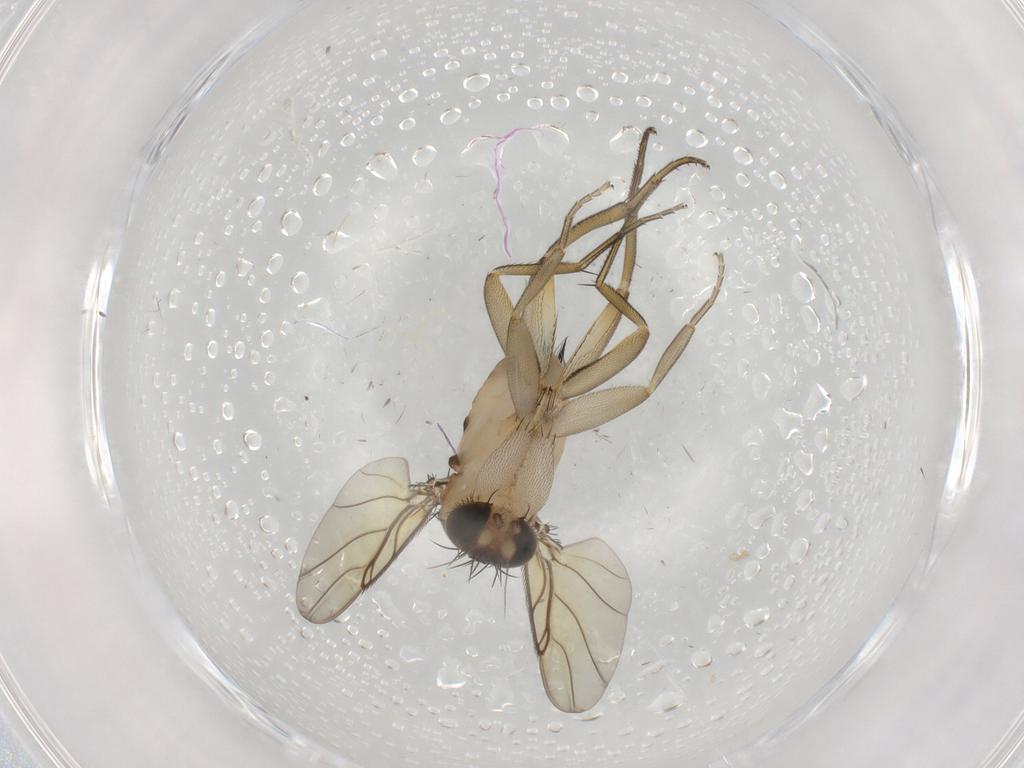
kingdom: Animalia
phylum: Arthropoda
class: Insecta
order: Diptera
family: Phoridae
